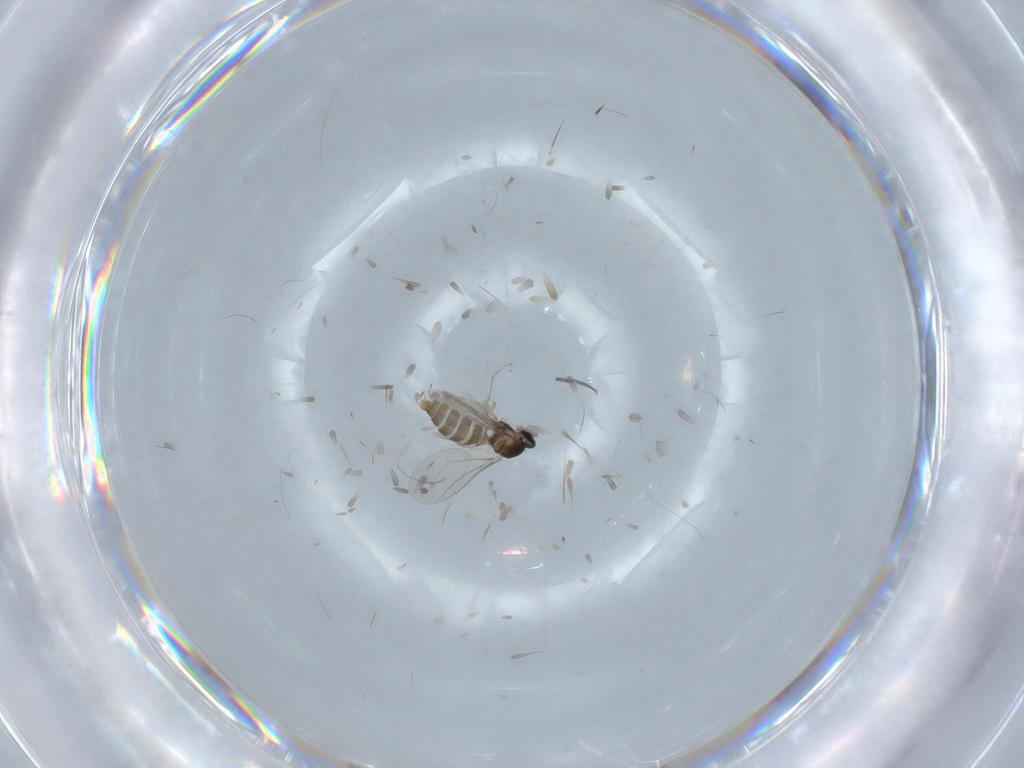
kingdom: Animalia
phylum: Arthropoda
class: Insecta
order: Diptera
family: Cecidomyiidae
